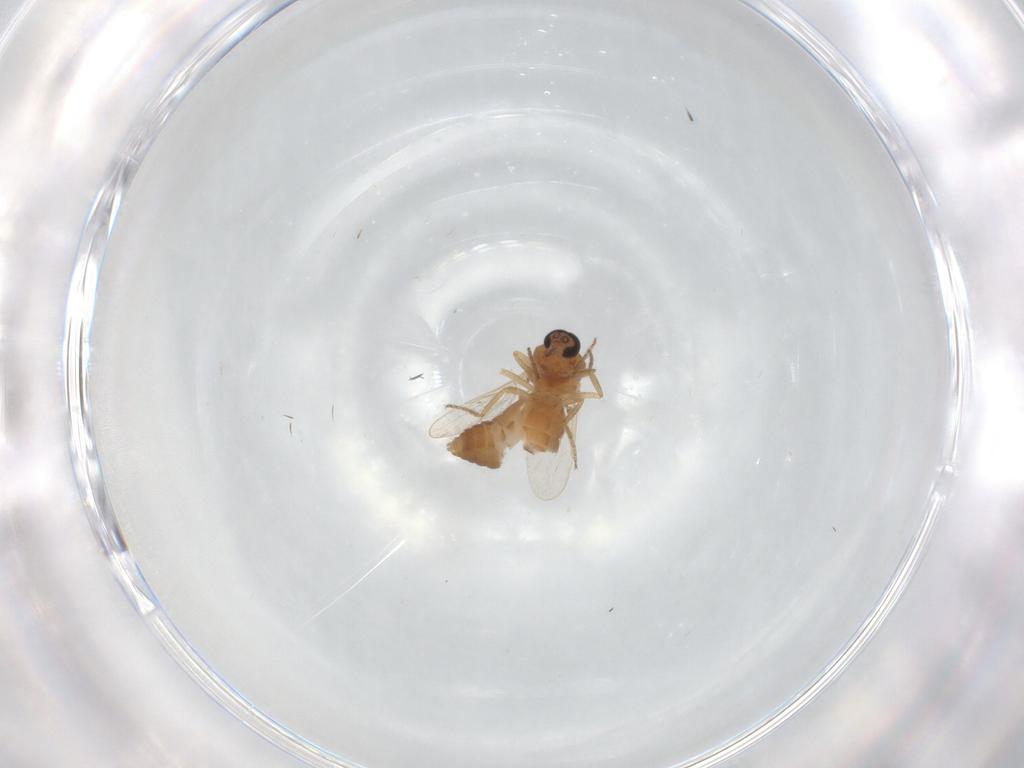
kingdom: Animalia
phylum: Arthropoda
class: Insecta
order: Diptera
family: Ceratopogonidae
